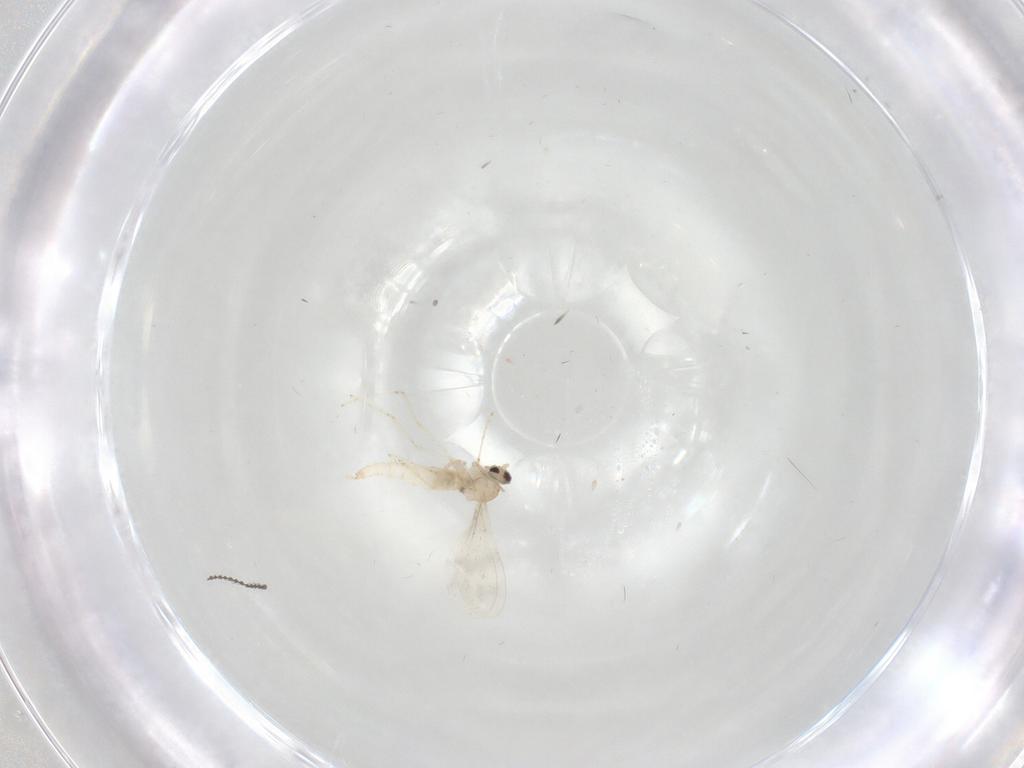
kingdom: Animalia
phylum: Arthropoda
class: Insecta
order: Diptera
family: Cecidomyiidae
